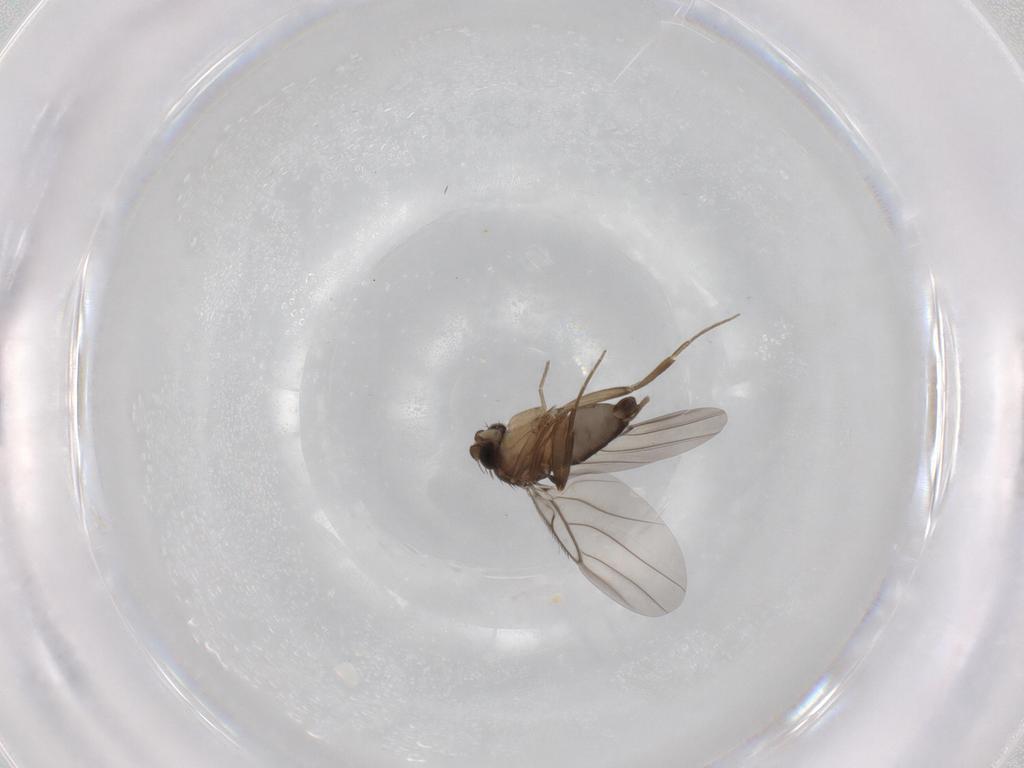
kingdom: Animalia
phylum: Arthropoda
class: Insecta
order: Diptera
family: Phoridae
